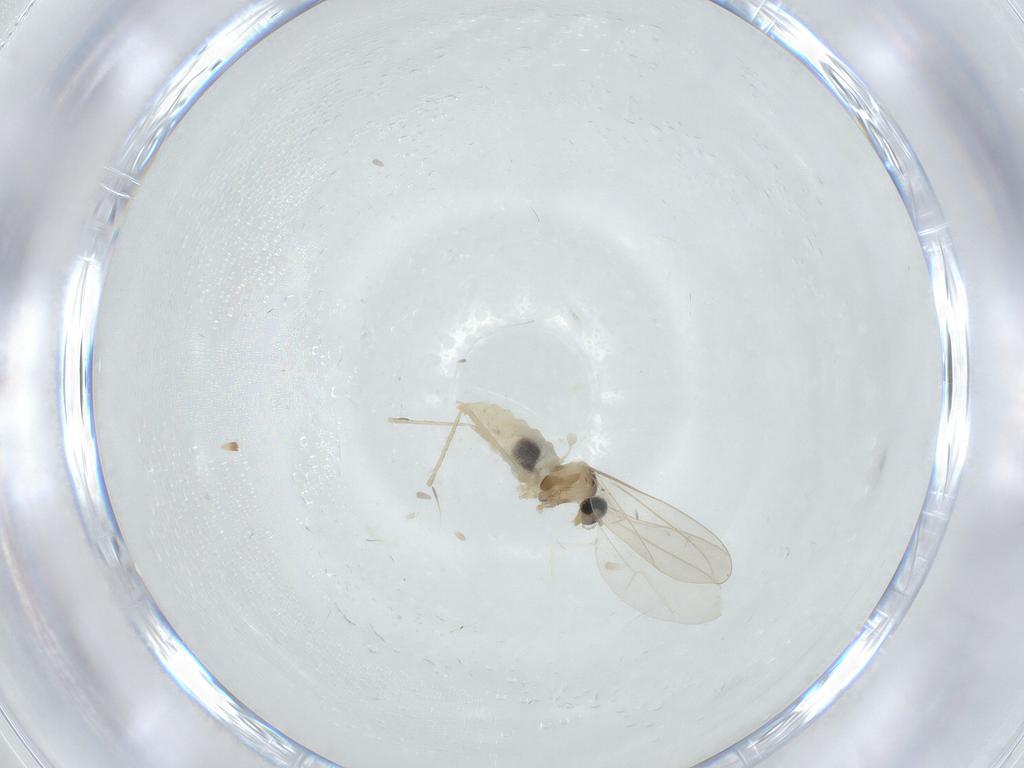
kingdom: Animalia
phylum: Arthropoda
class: Insecta
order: Diptera
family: Cecidomyiidae
